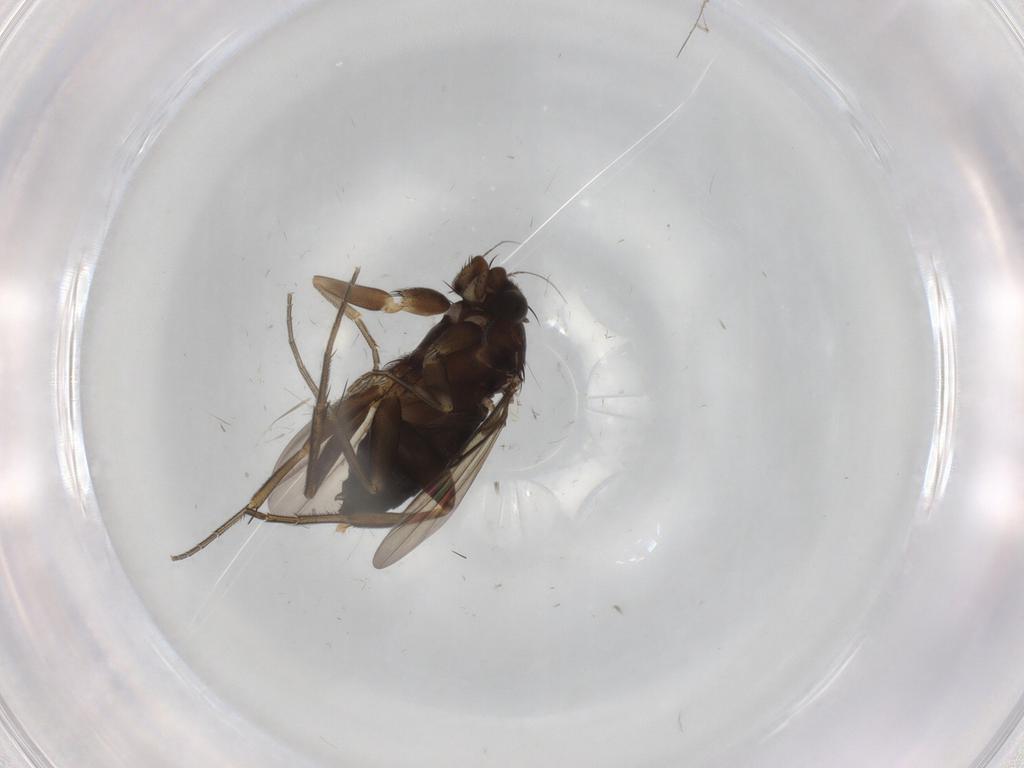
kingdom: Animalia
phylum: Arthropoda
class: Insecta
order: Diptera
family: Phoridae
